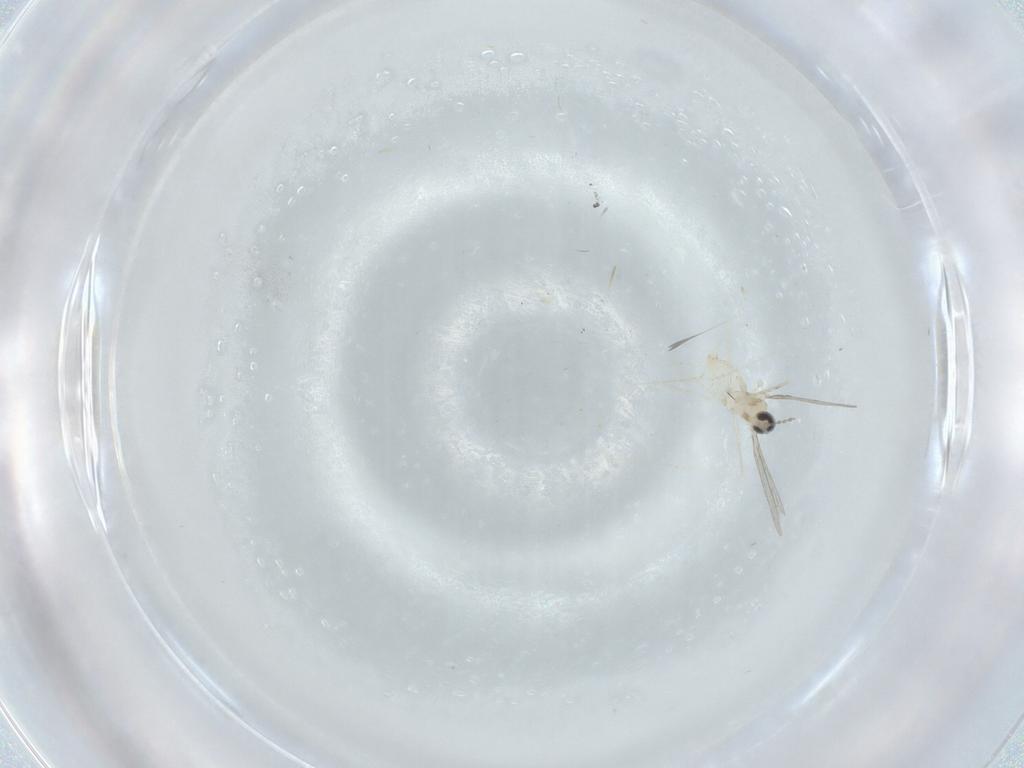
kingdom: Animalia
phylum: Arthropoda
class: Insecta
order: Diptera
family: Cecidomyiidae
